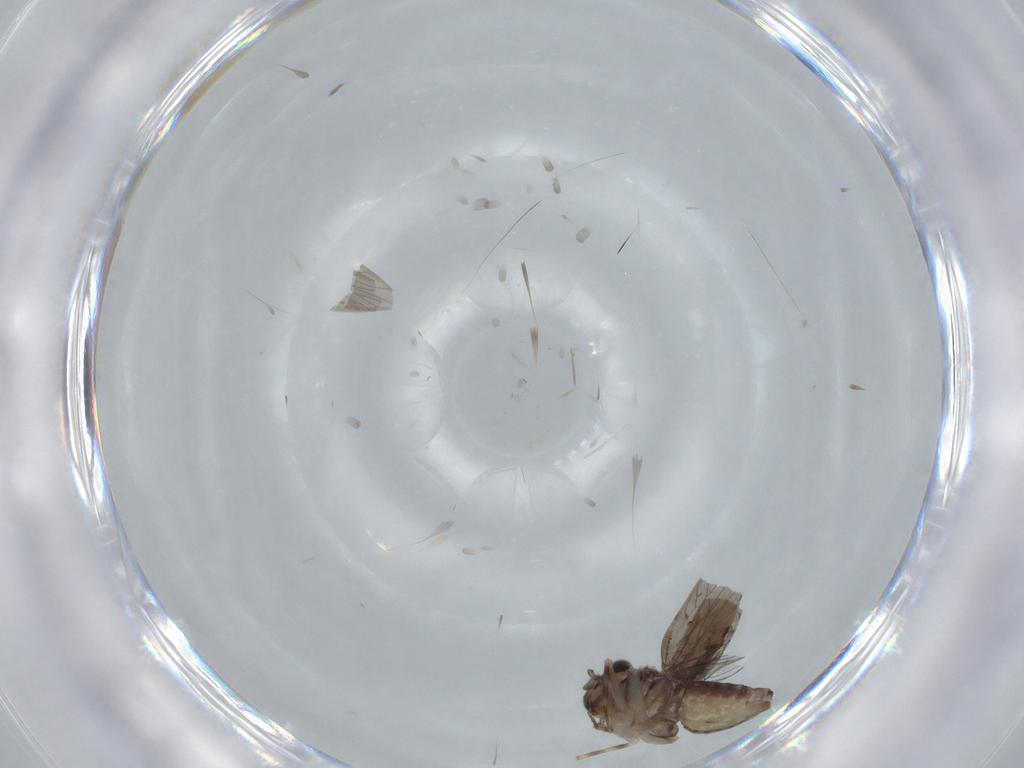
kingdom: Animalia
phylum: Arthropoda
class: Insecta
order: Psocodea
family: Lepidopsocidae
